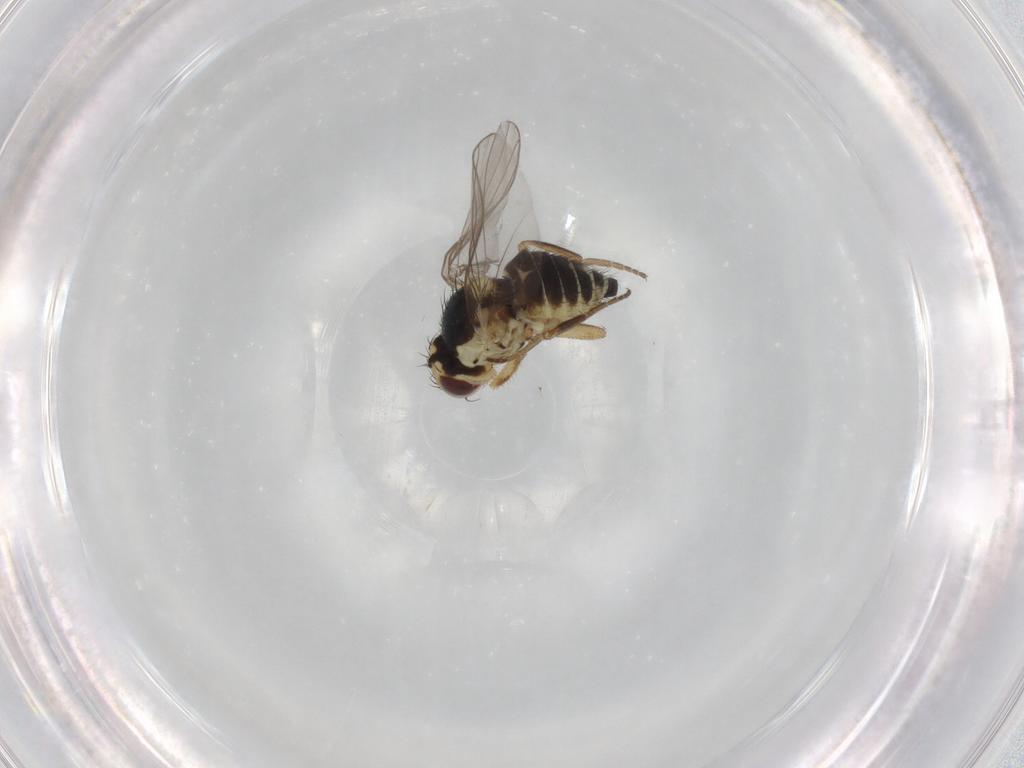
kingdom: Animalia
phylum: Arthropoda
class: Insecta
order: Diptera
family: Agromyzidae
